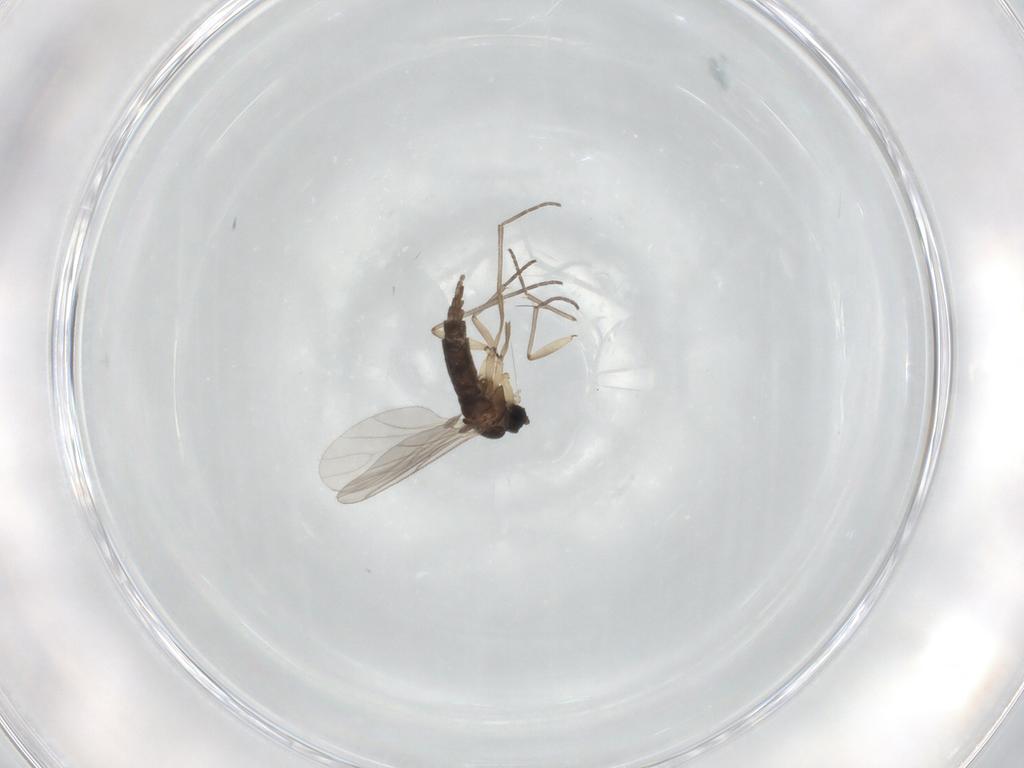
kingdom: Animalia
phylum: Arthropoda
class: Insecta
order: Diptera
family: Sciaridae
